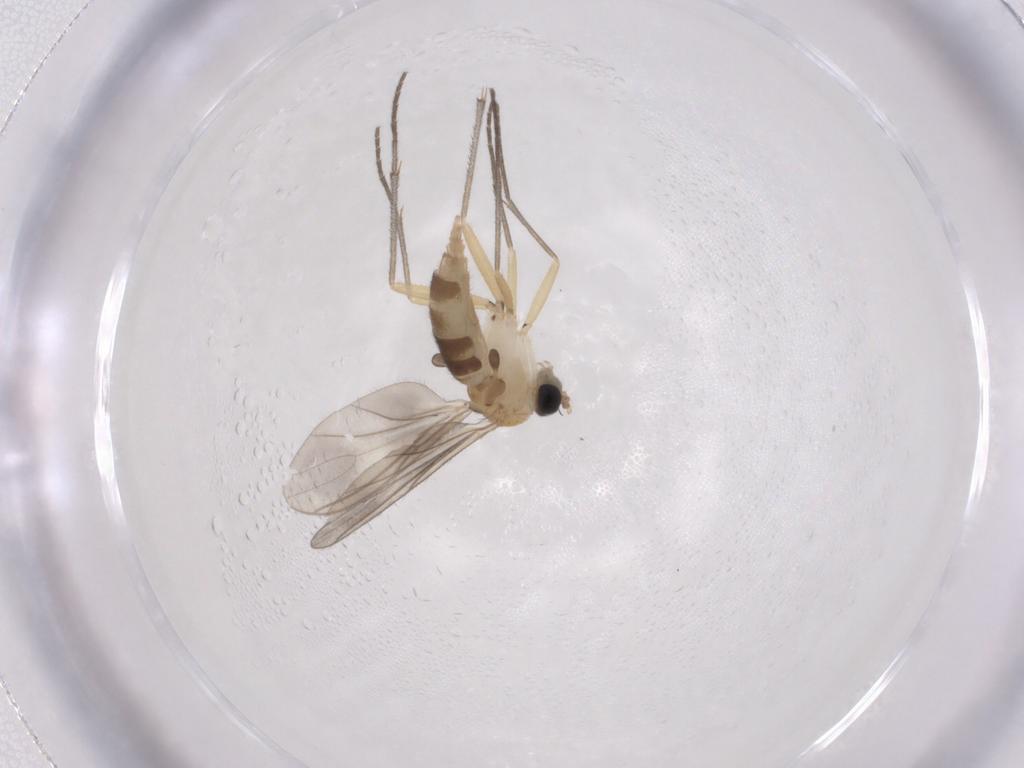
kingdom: Animalia
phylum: Arthropoda
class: Insecta
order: Diptera
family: Sciaridae
